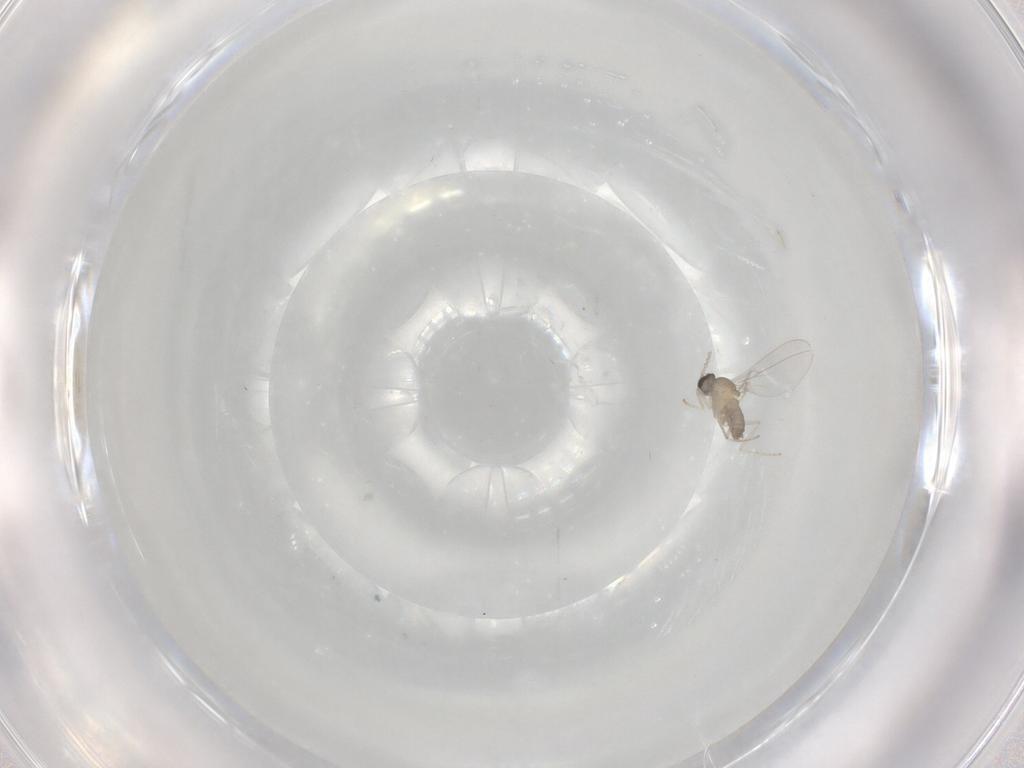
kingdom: Animalia
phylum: Arthropoda
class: Insecta
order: Diptera
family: Cecidomyiidae
